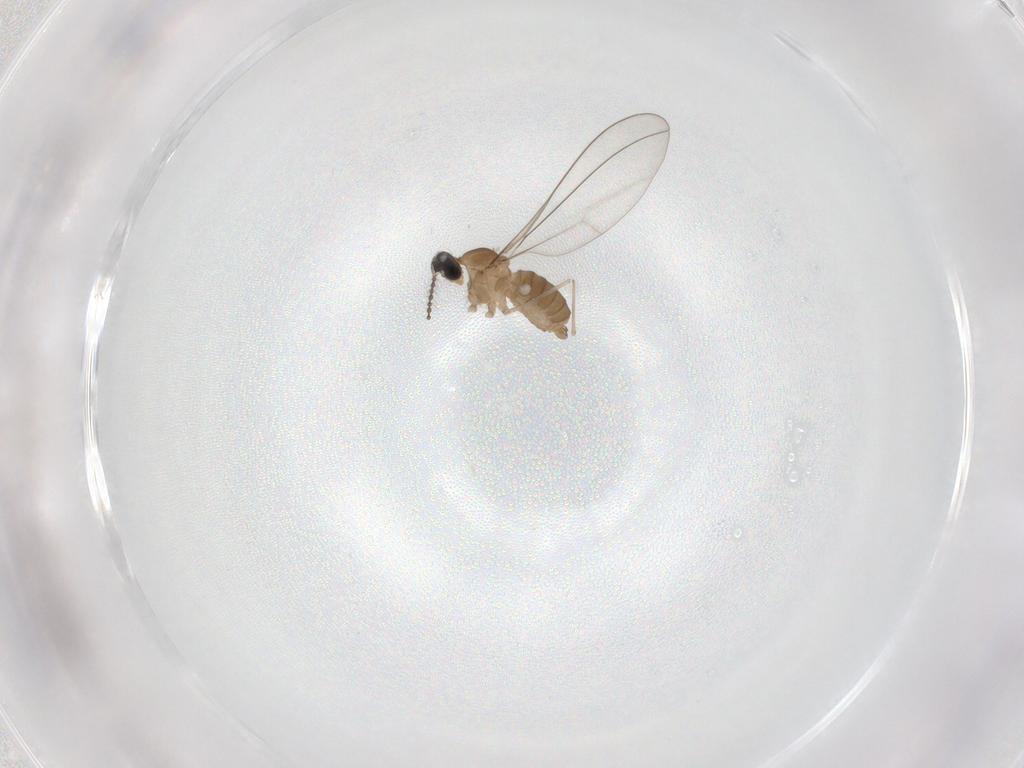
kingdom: Animalia
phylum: Arthropoda
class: Insecta
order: Diptera
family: Cecidomyiidae
